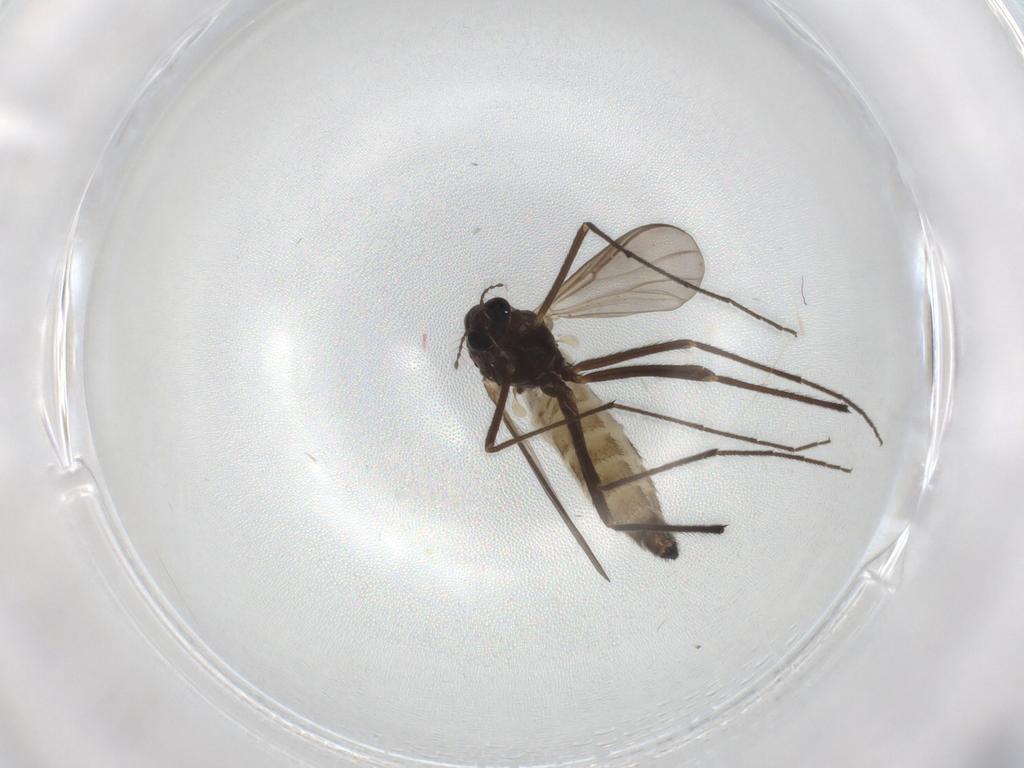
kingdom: Animalia
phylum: Arthropoda
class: Insecta
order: Diptera
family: Chironomidae
